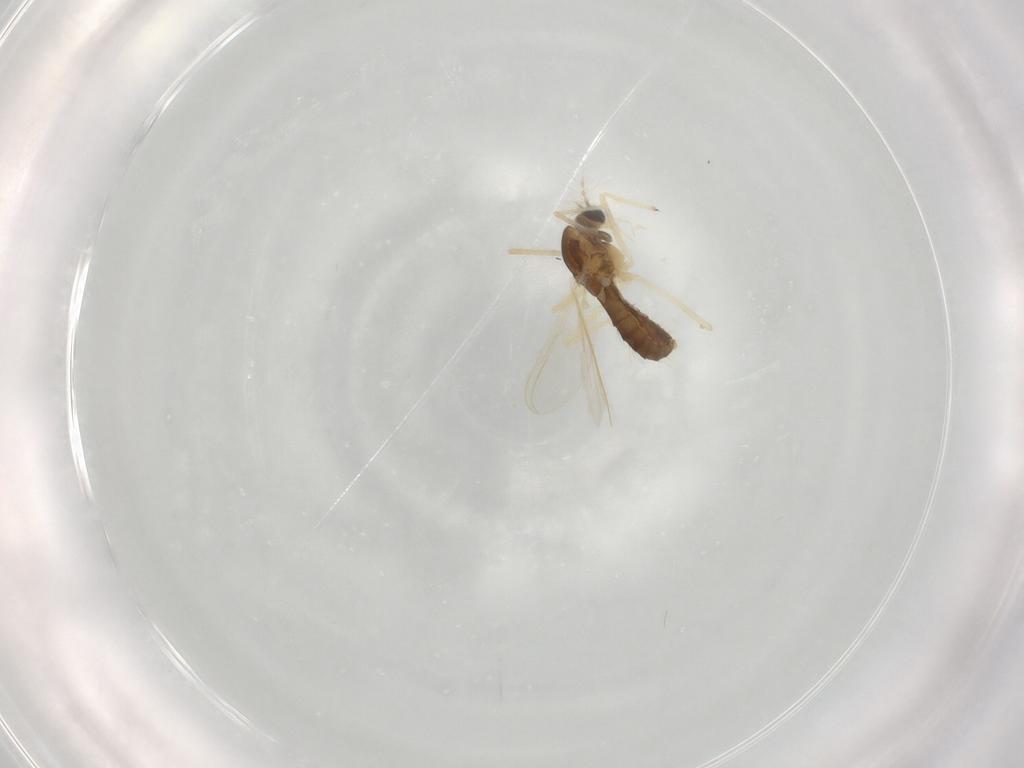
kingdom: Animalia
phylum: Arthropoda
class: Insecta
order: Diptera
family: Chironomidae
